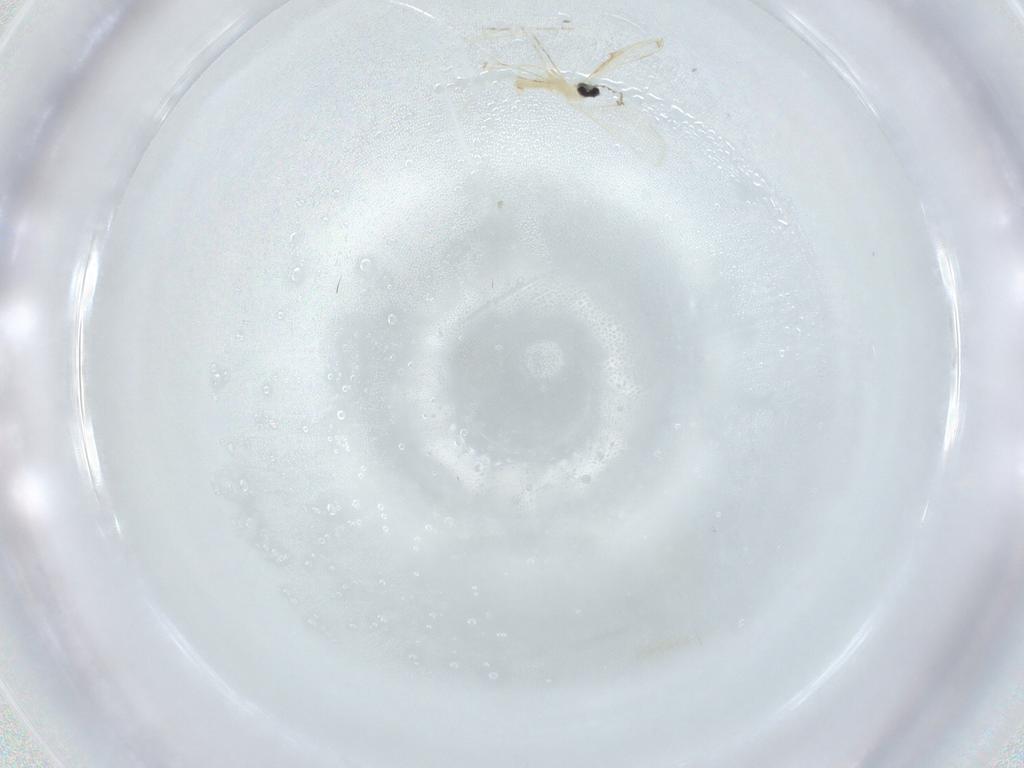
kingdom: Animalia
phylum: Arthropoda
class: Insecta
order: Diptera
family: Cecidomyiidae
